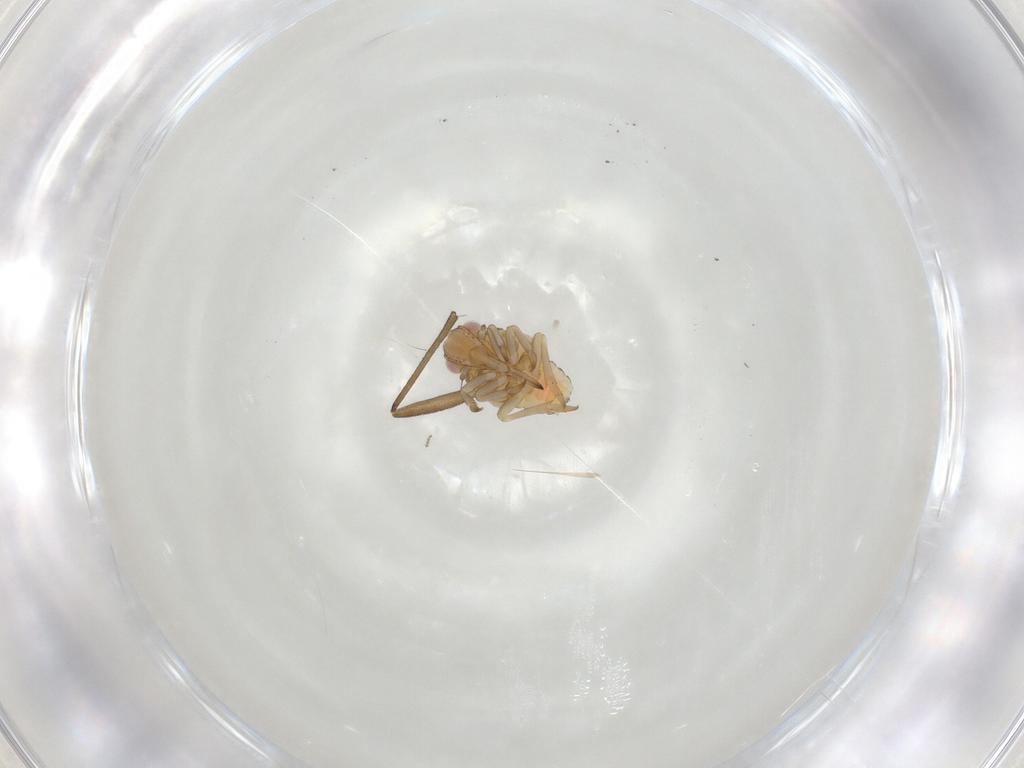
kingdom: Animalia
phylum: Arthropoda
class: Insecta
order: Hemiptera
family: Tropiduchidae
